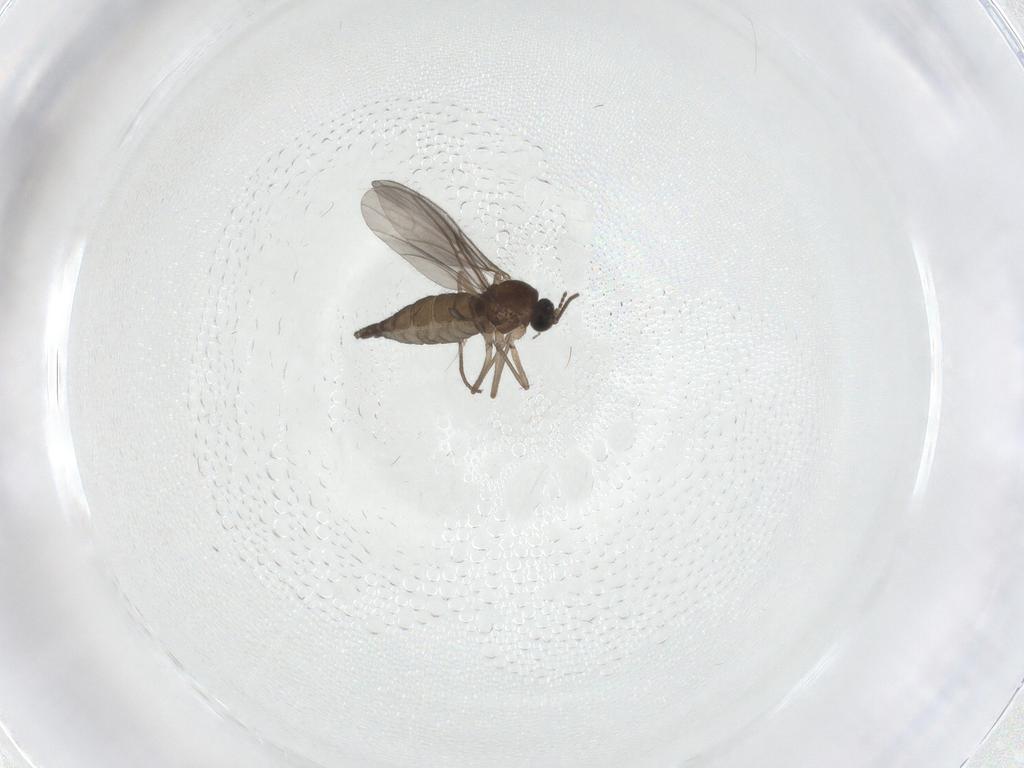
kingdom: Animalia
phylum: Arthropoda
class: Insecta
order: Diptera
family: Sciaridae
